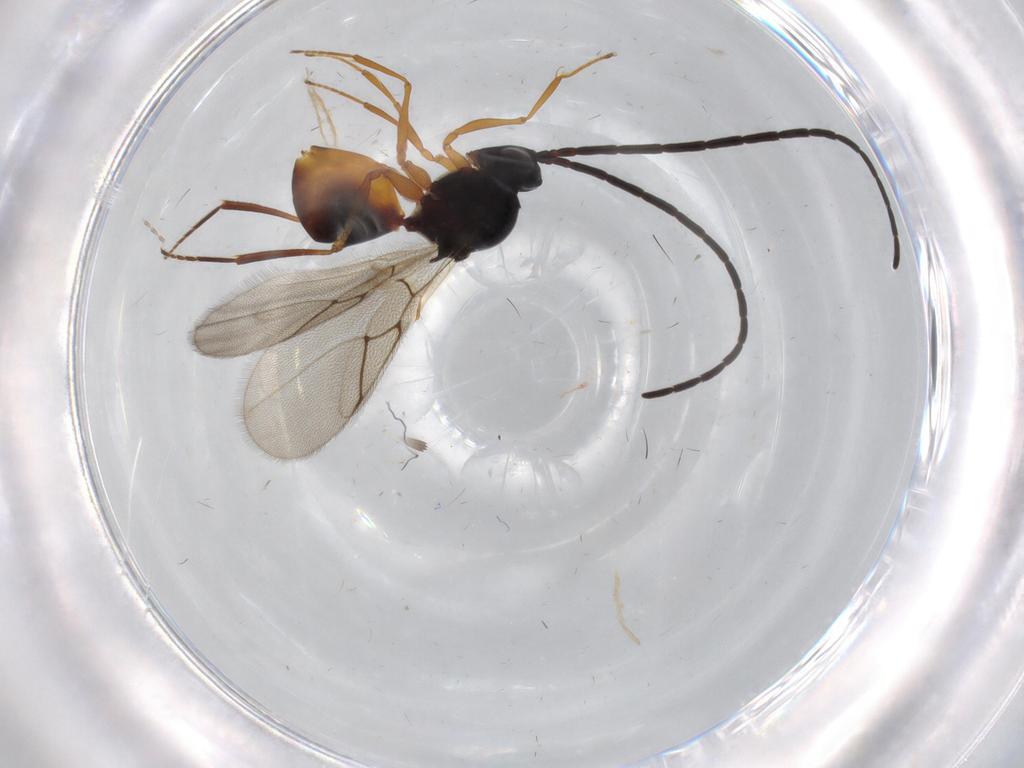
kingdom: Animalia
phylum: Arthropoda
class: Insecta
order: Hymenoptera
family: Figitidae
